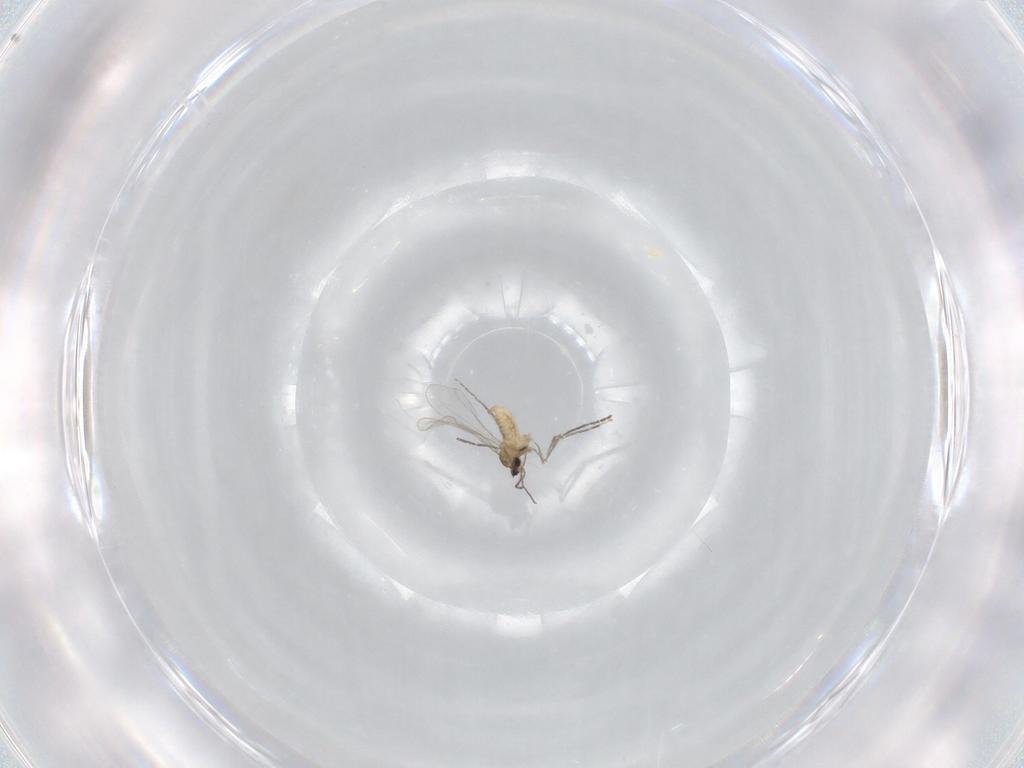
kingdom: Animalia
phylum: Arthropoda
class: Insecta
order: Diptera
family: Cecidomyiidae
